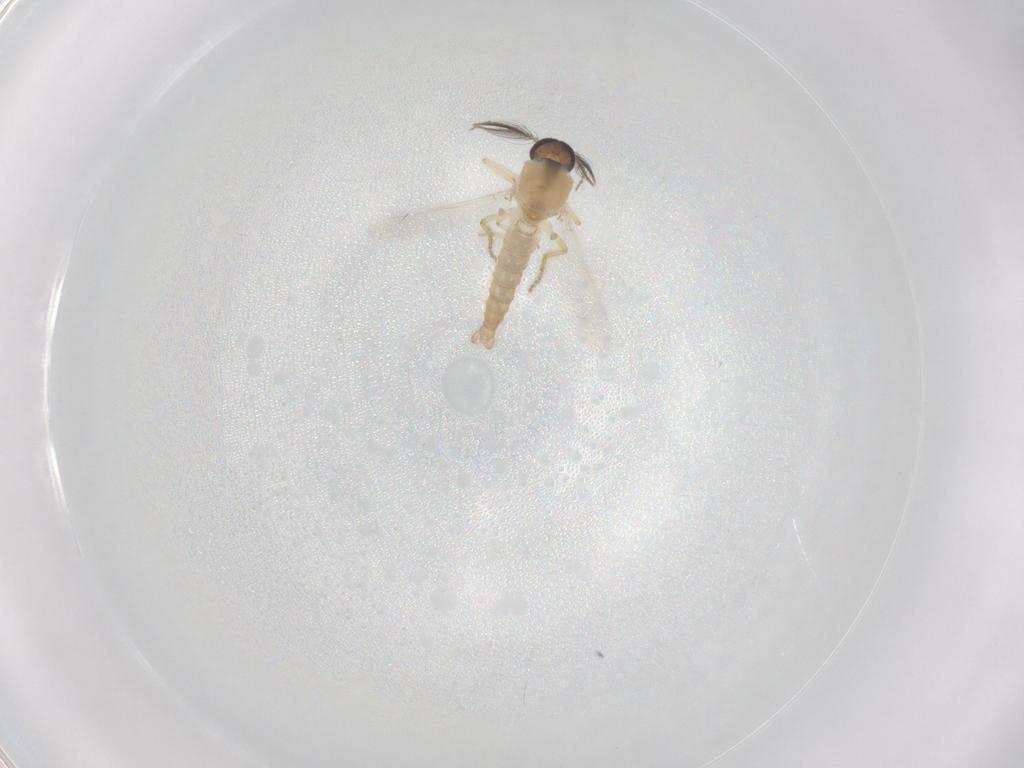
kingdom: Animalia
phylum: Arthropoda
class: Insecta
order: Diptera
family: Ceratopogonidae
